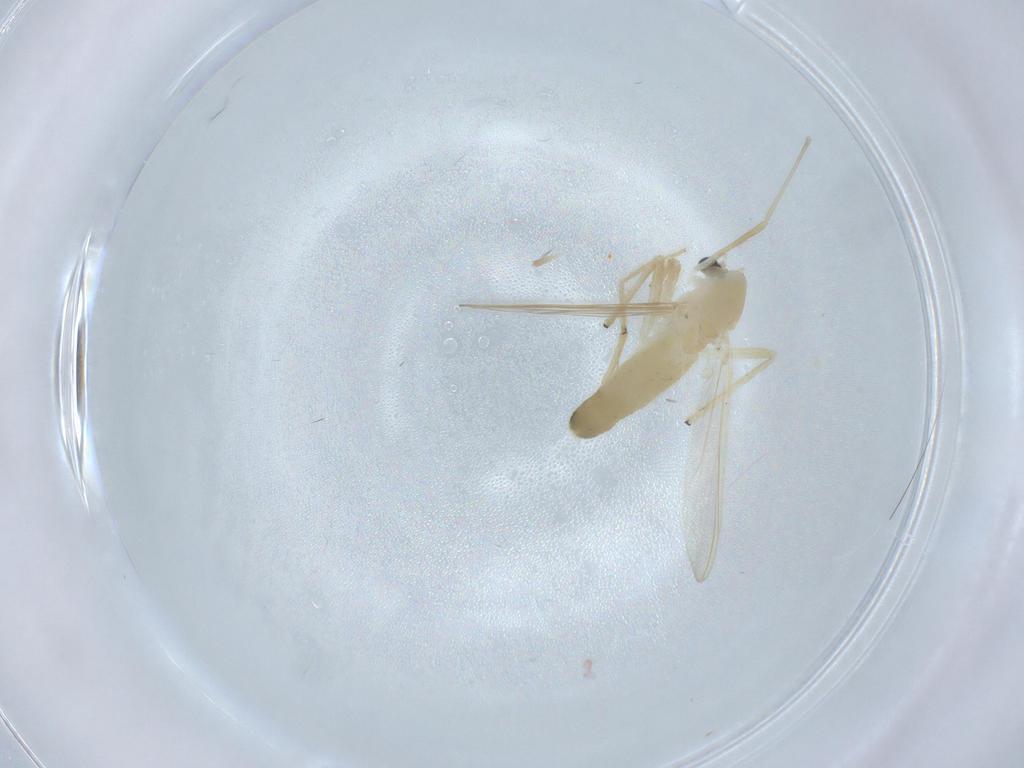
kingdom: Animalia
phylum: Arthropoda
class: Insecta
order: Diptera
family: Chironomidae
